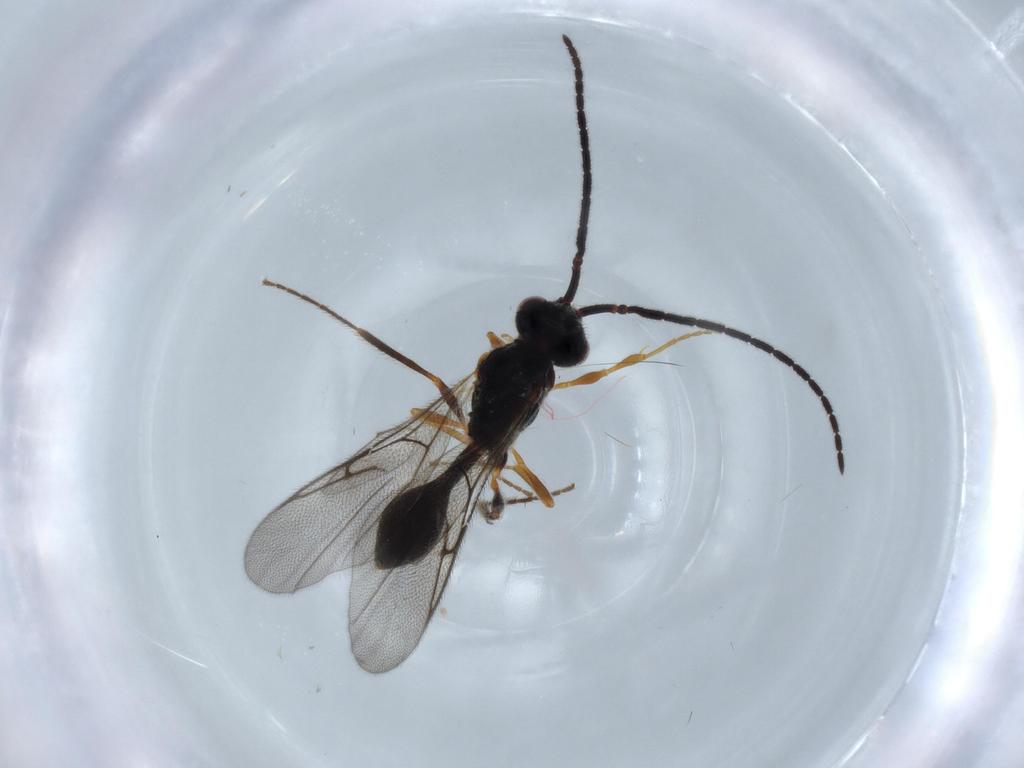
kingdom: Animalia
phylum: Arthropoda
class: Insecta
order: Hymenoptera
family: Diapriidae
